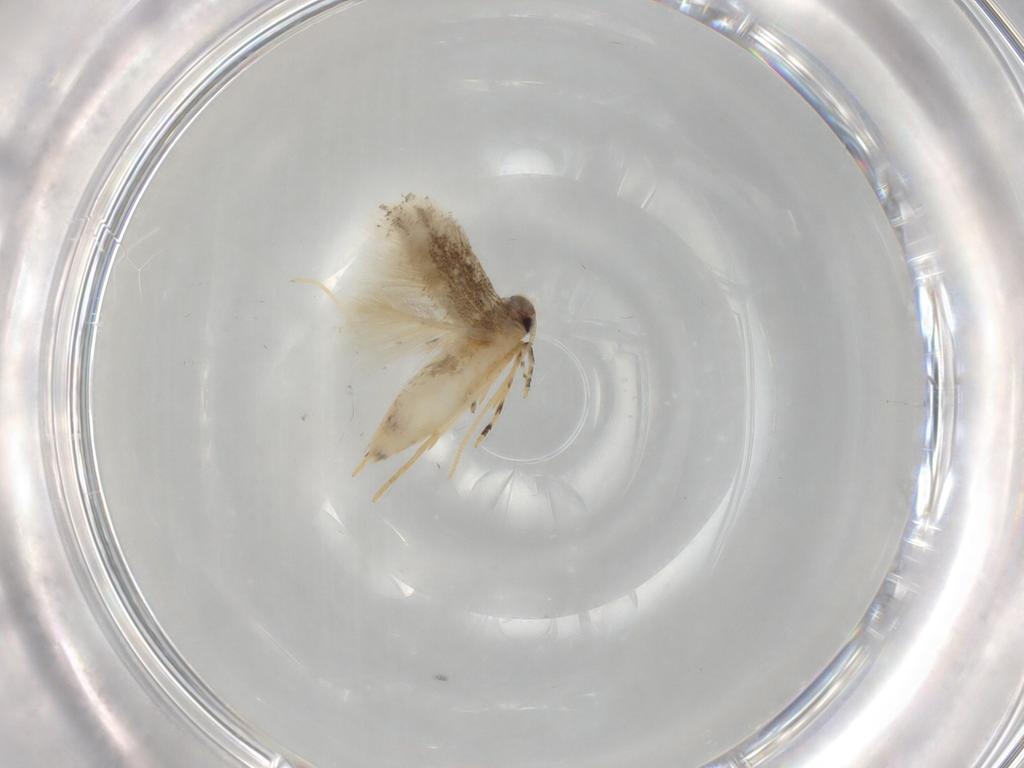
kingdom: Animalia
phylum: Arthropoda
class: Insecta
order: Lepidoptera
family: Cosmopterigidae
